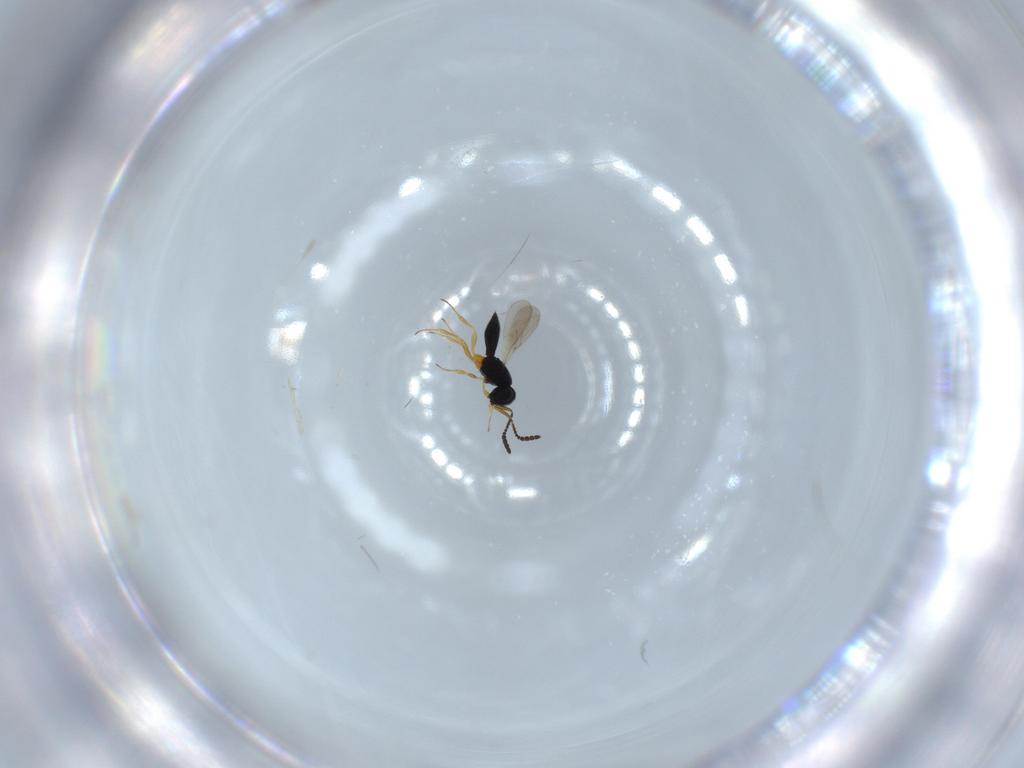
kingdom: Animalia
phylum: Arthropoda
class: Insecta
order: Hymenoptera
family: Scelionidae
